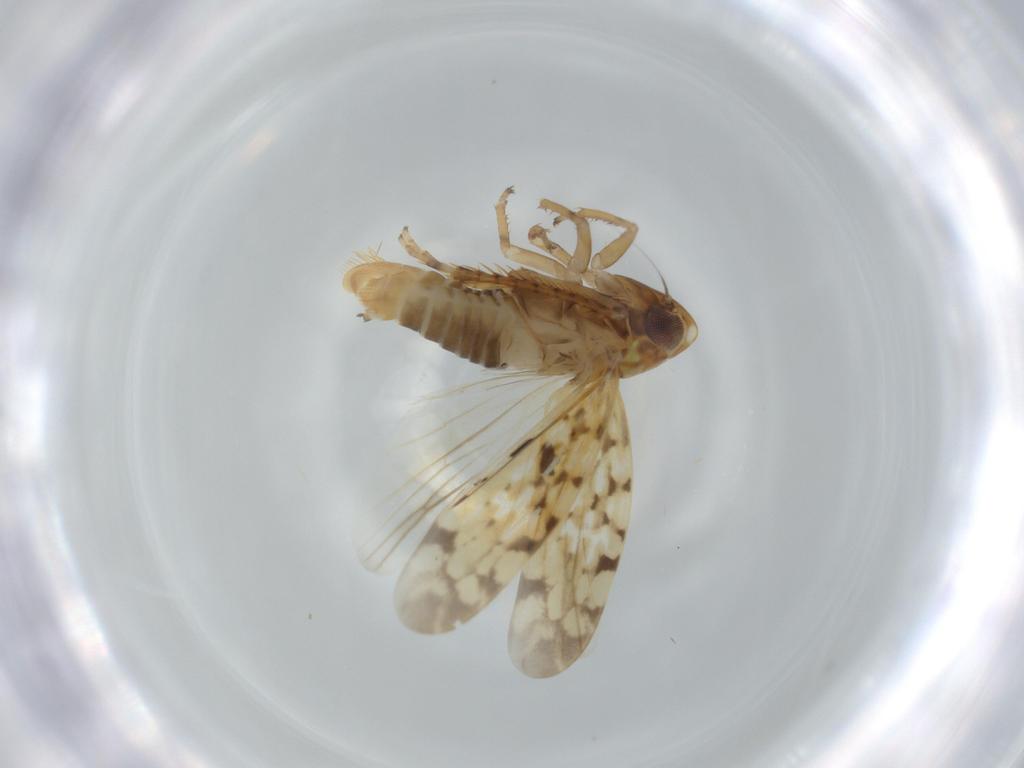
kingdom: Animalia
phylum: Arthropoda
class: Insecta
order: Hemiptera
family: Cicadellidae
